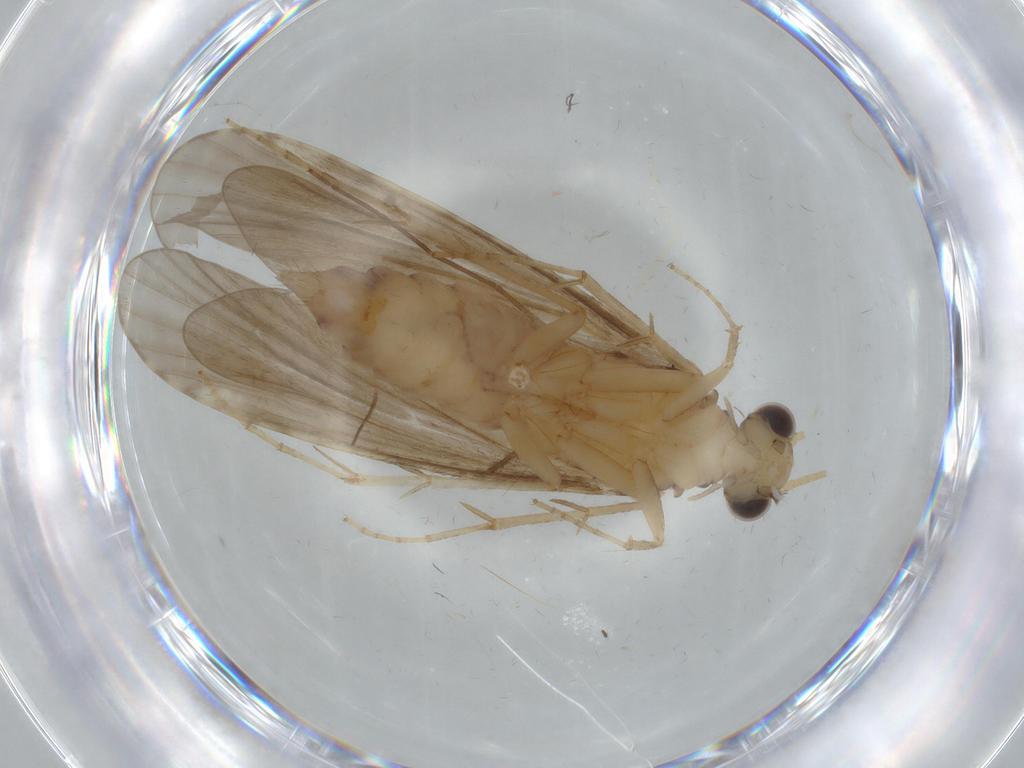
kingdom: Animalia
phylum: Arthropoda
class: Insecta
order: Trichoptera
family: Ecnomidae
